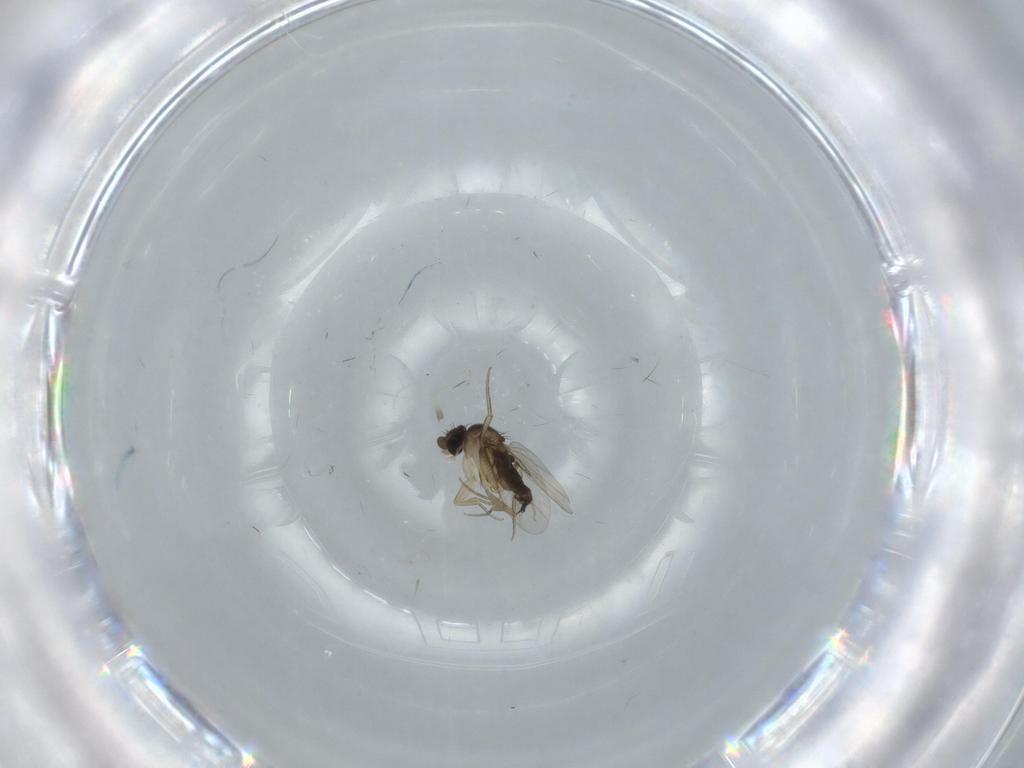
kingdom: Animalia
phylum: Arthropoda
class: Insecta
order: Diptera
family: Phoridae
